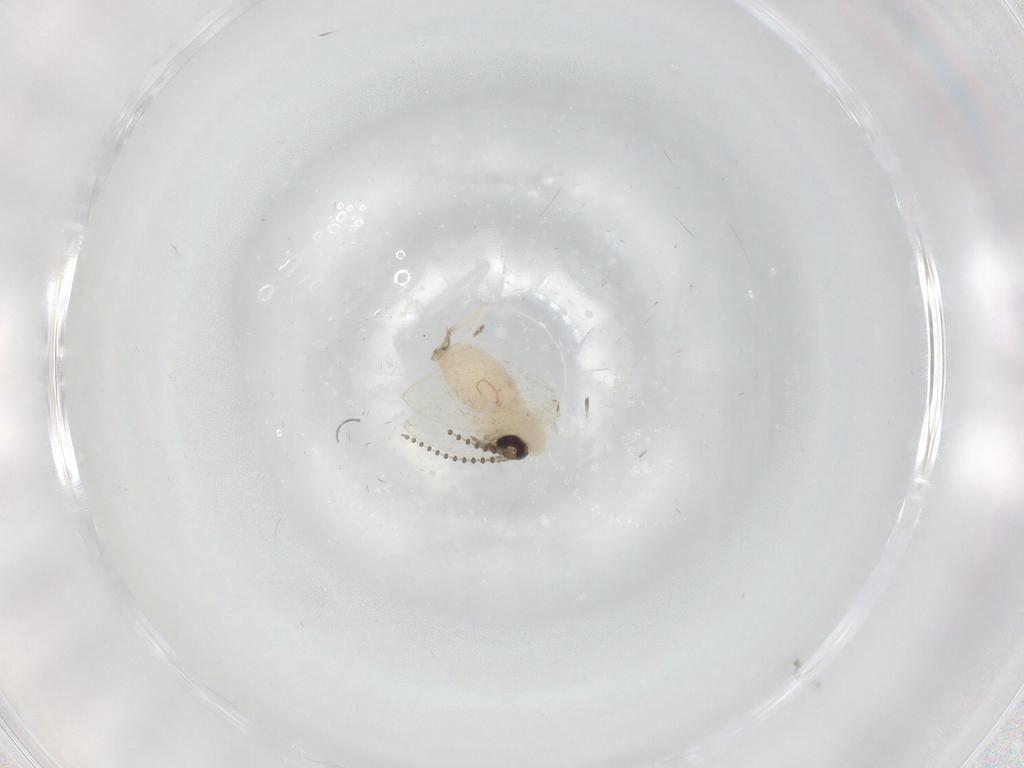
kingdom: Animalia
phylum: Arthropoda
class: Insecta
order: Diptera
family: Psychodidae
